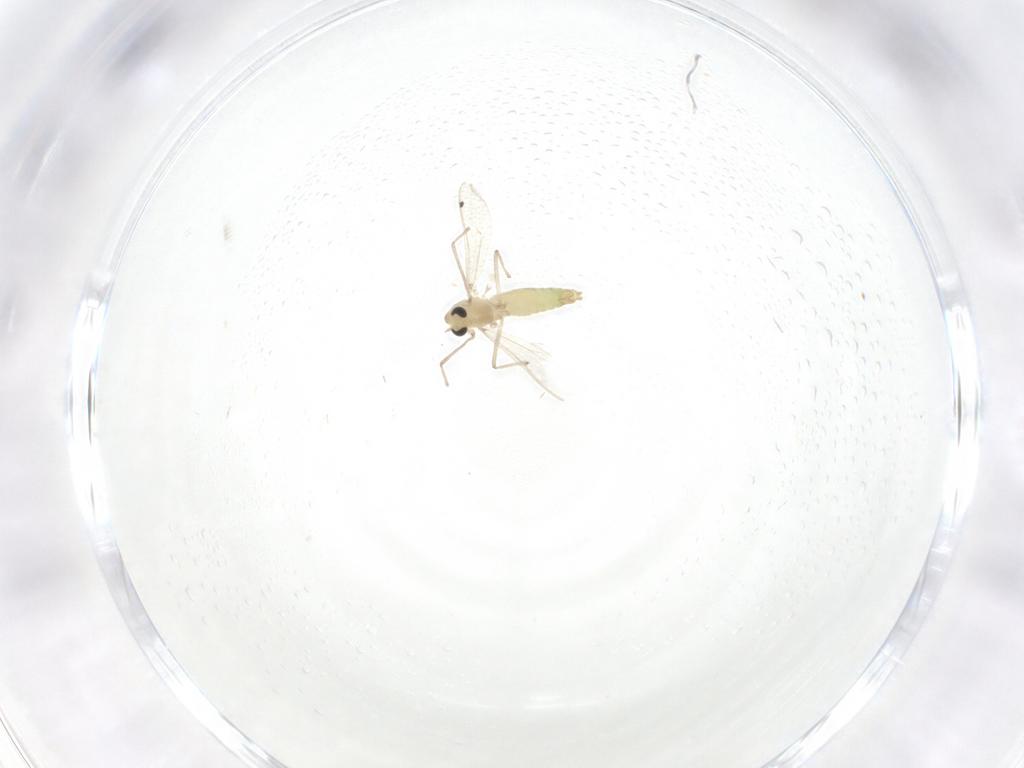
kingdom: Animalia
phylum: Arthropoda
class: Insecta
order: Diptera
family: Chironomidae
